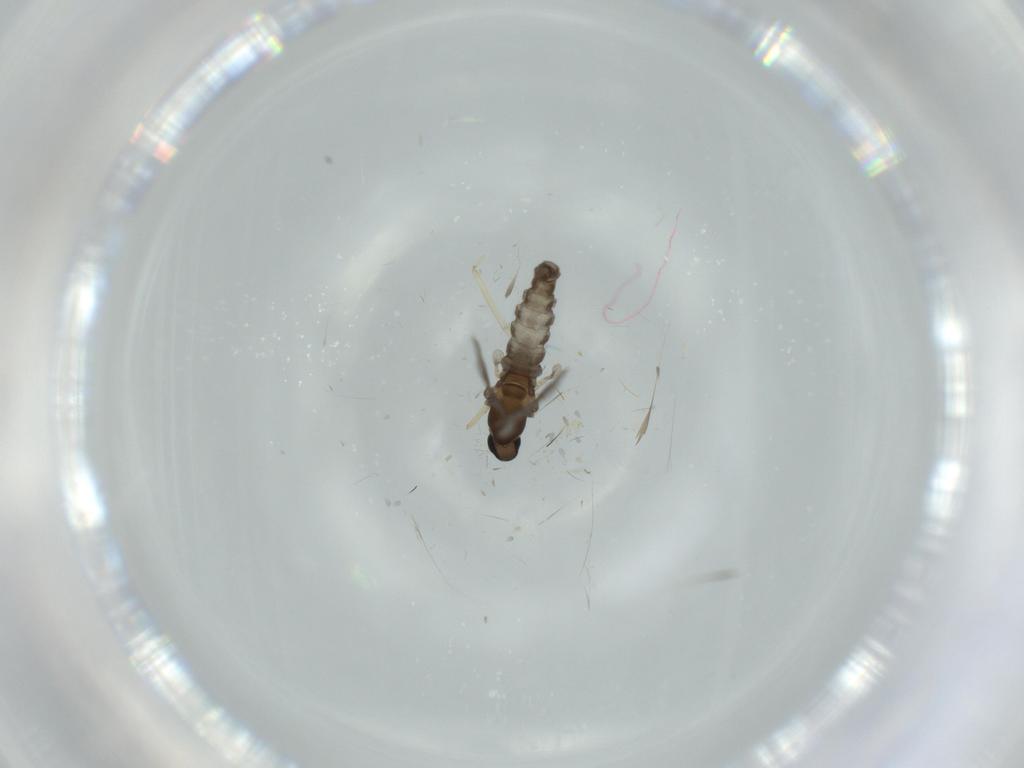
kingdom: Animalia
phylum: Arthropoda
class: Insecta
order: Diptera
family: Cecidomyiidae
